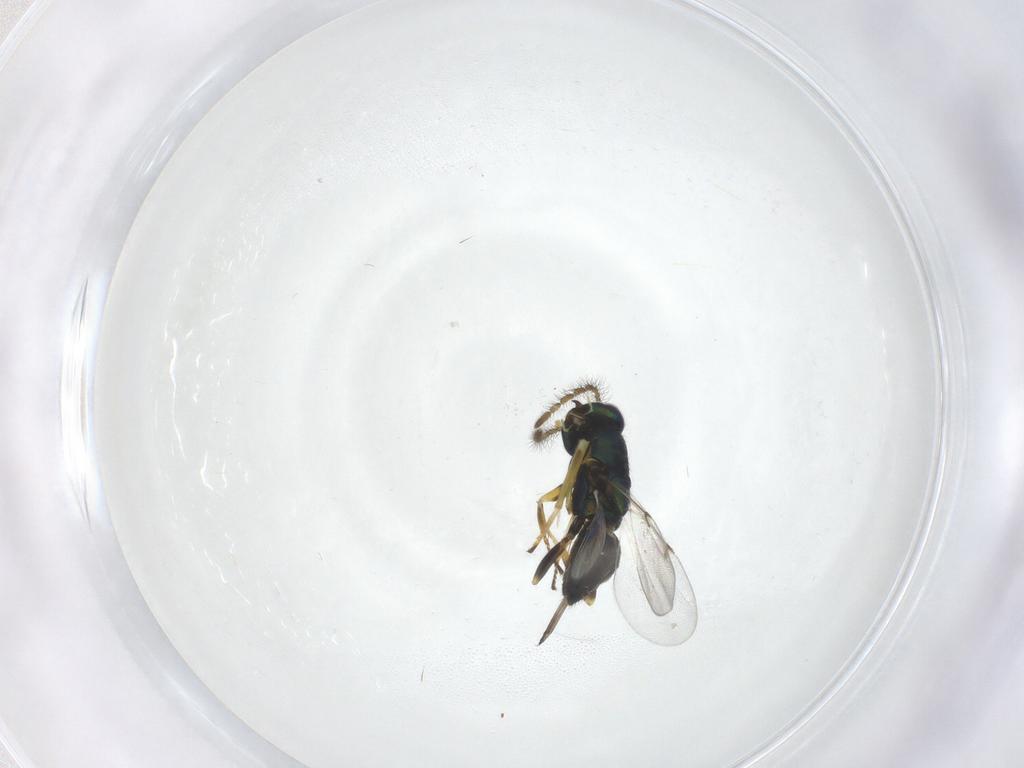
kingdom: Animalia
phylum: Arthropoda
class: Insecta
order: Hymenoptera
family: Encyrtidae
